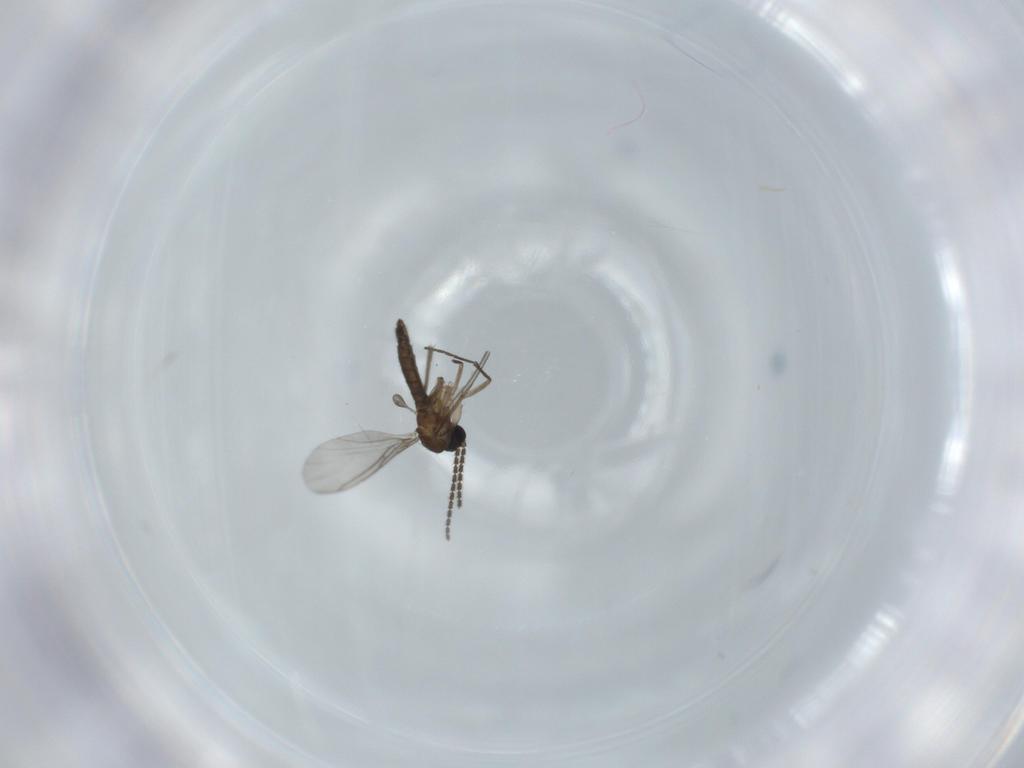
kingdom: Animalia
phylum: Arthropoda
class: Insecta
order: Diptera
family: Sciaridae
